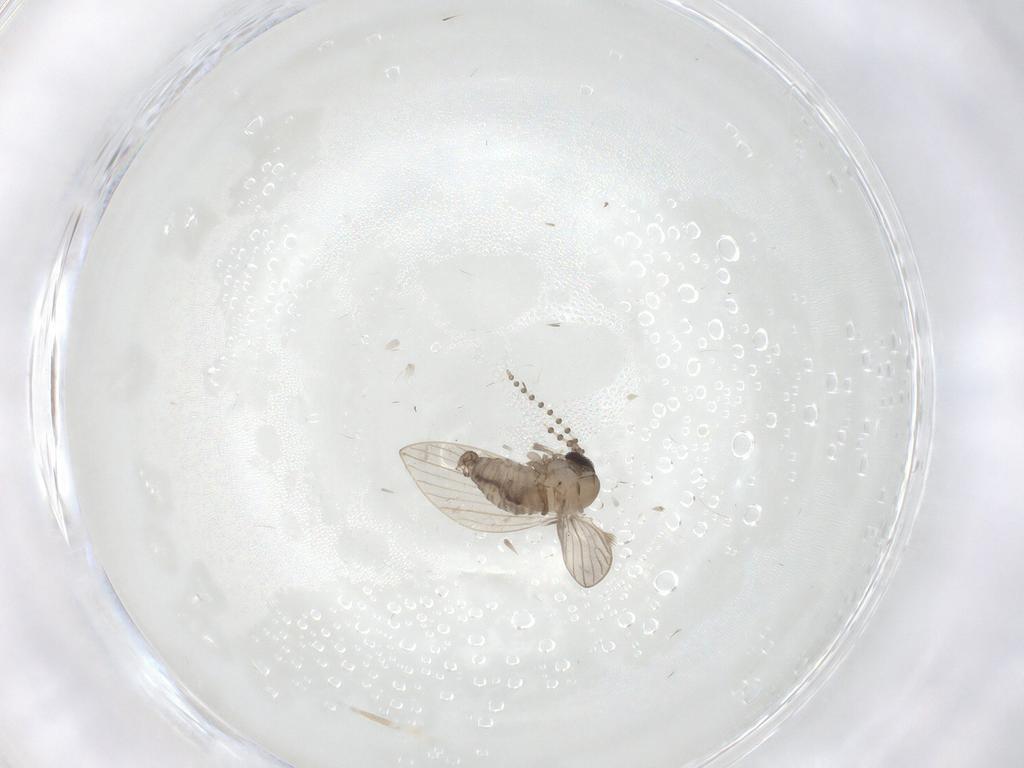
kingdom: Animalia
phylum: Arthropoda
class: Insecta
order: Diptera
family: Psychodidae
